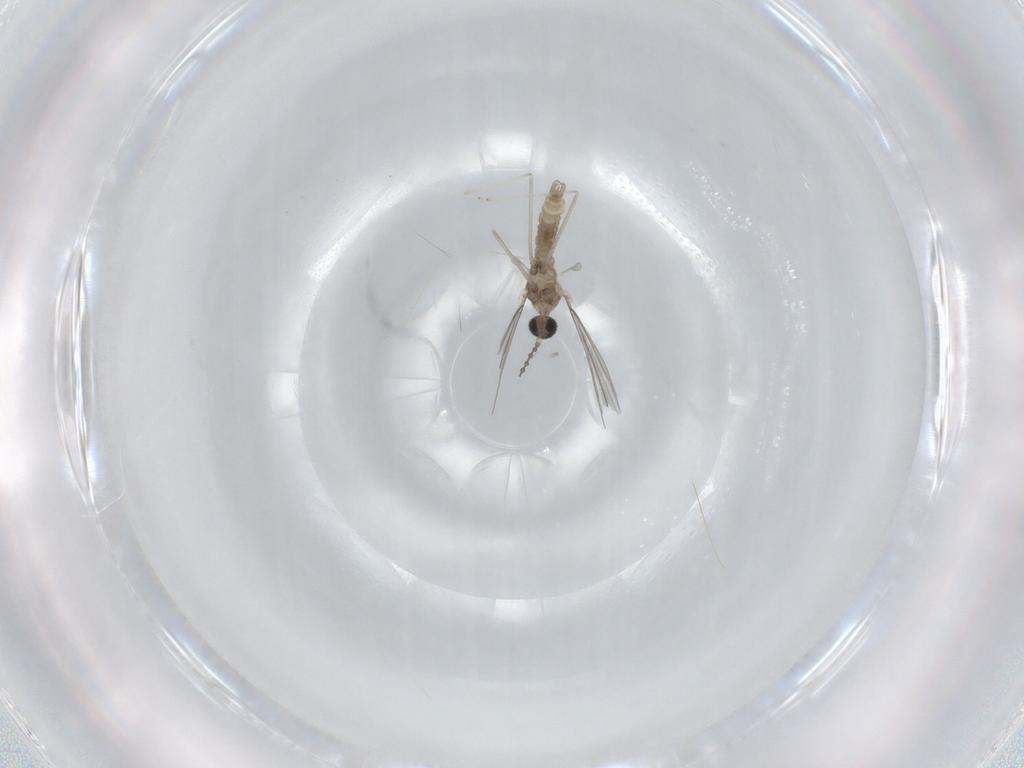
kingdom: Animalia
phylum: Arthropoda
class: Insecta
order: Diptera
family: Cecidomyiidae
